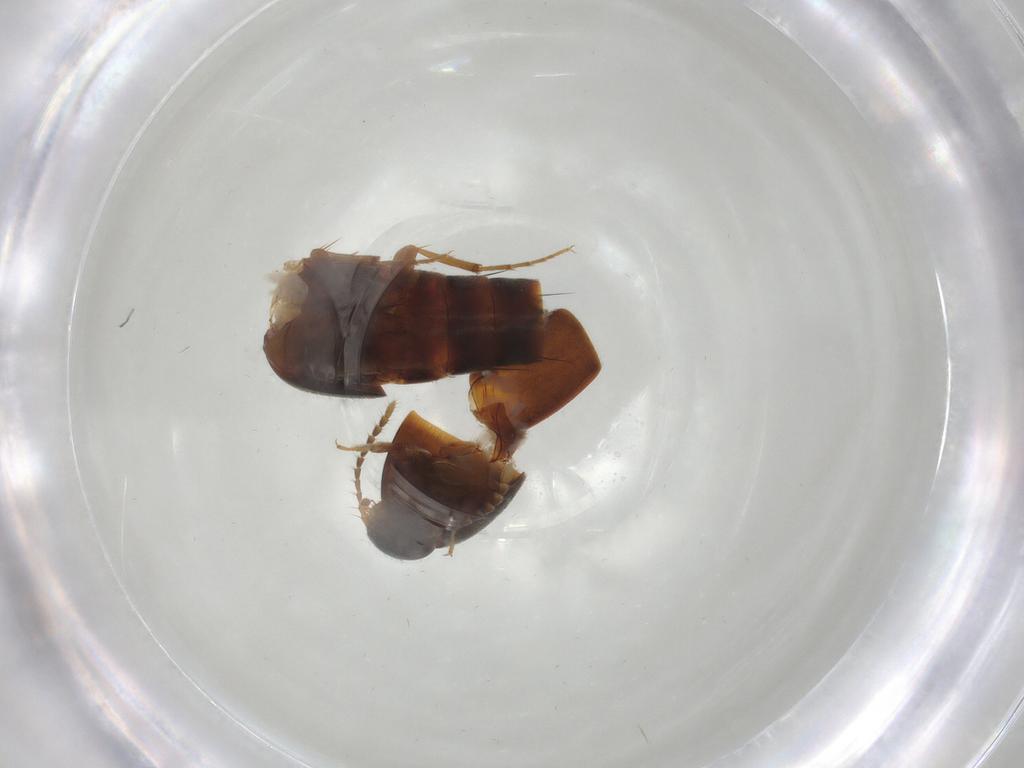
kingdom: Animalia
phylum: Arthropoda
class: Insecta
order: Coleoptera
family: Staphylinidae
